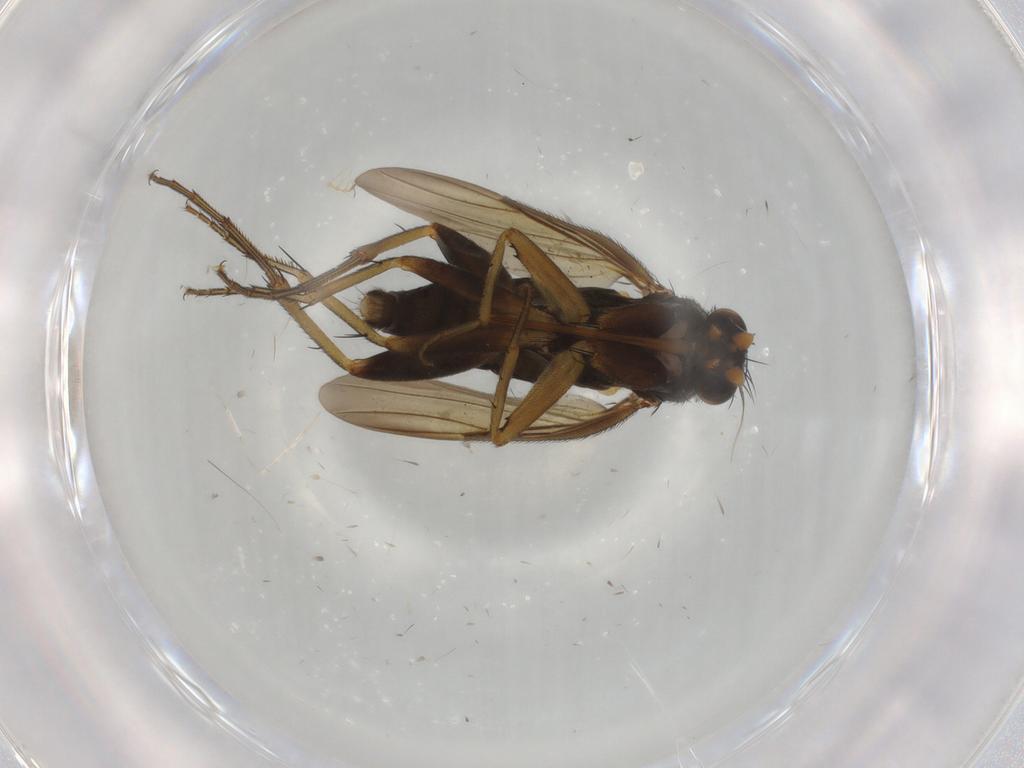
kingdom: Animalia
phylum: Arthropoda
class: Insecta
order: Diptera
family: Phoridae
